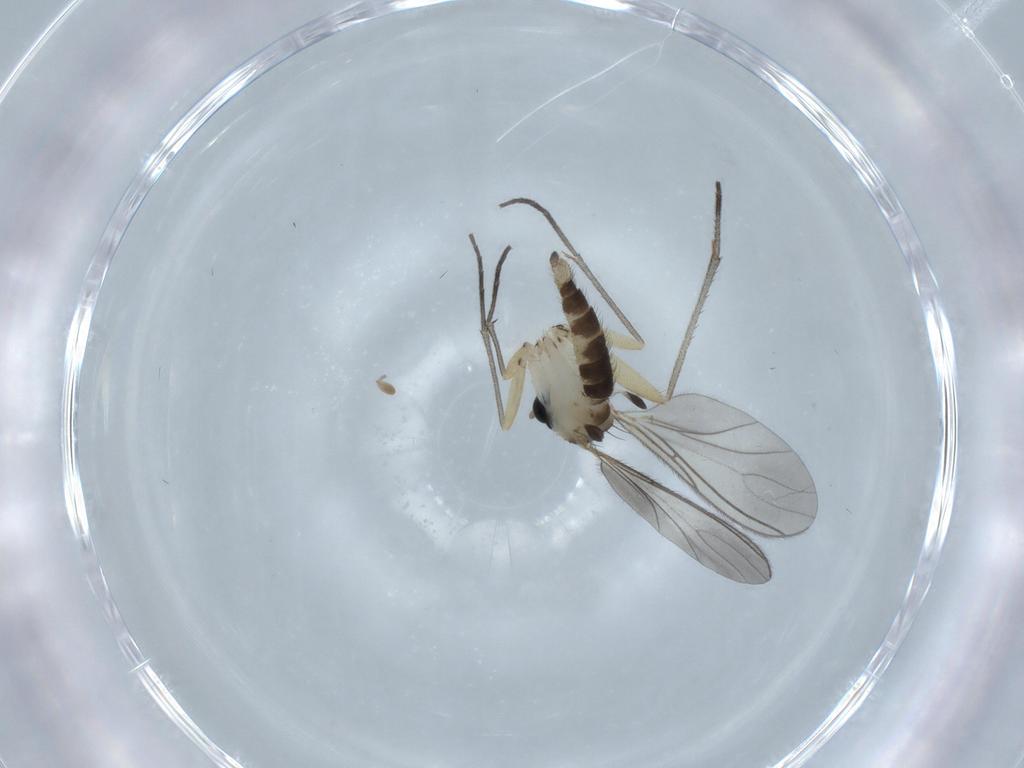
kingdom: Animalia
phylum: Arthropoda
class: Insecta
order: Diptera
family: Sciaridae
